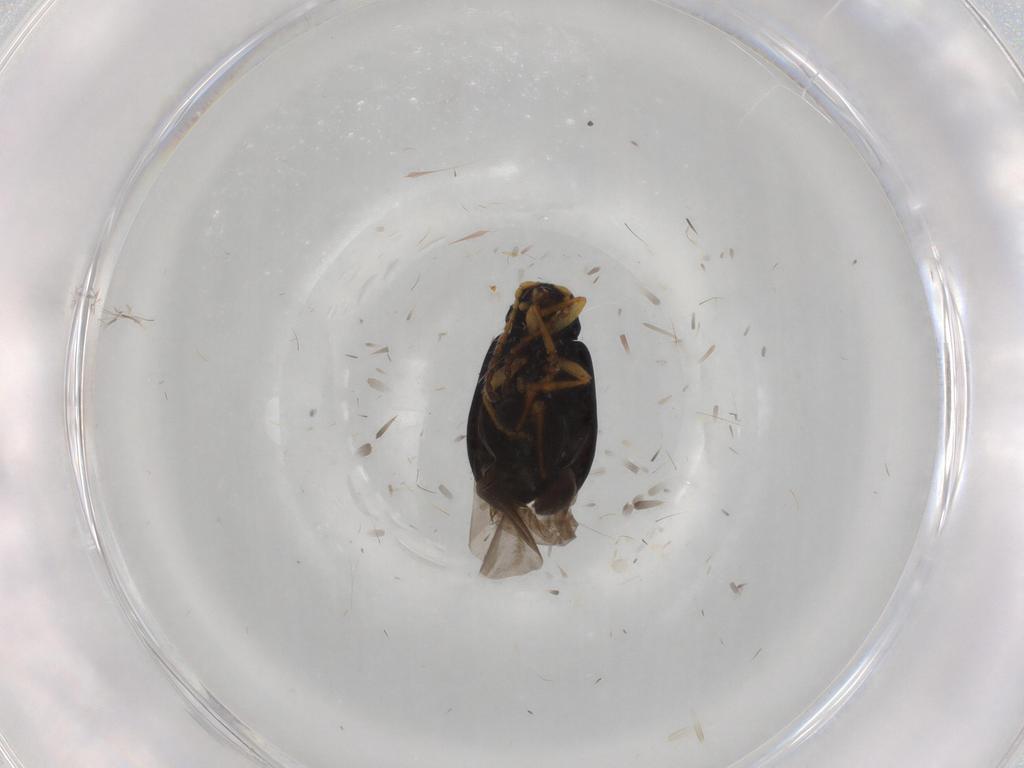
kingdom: Animalia
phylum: Arthropoda
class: Insecta
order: Coleoptera
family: Chrysomelidae
